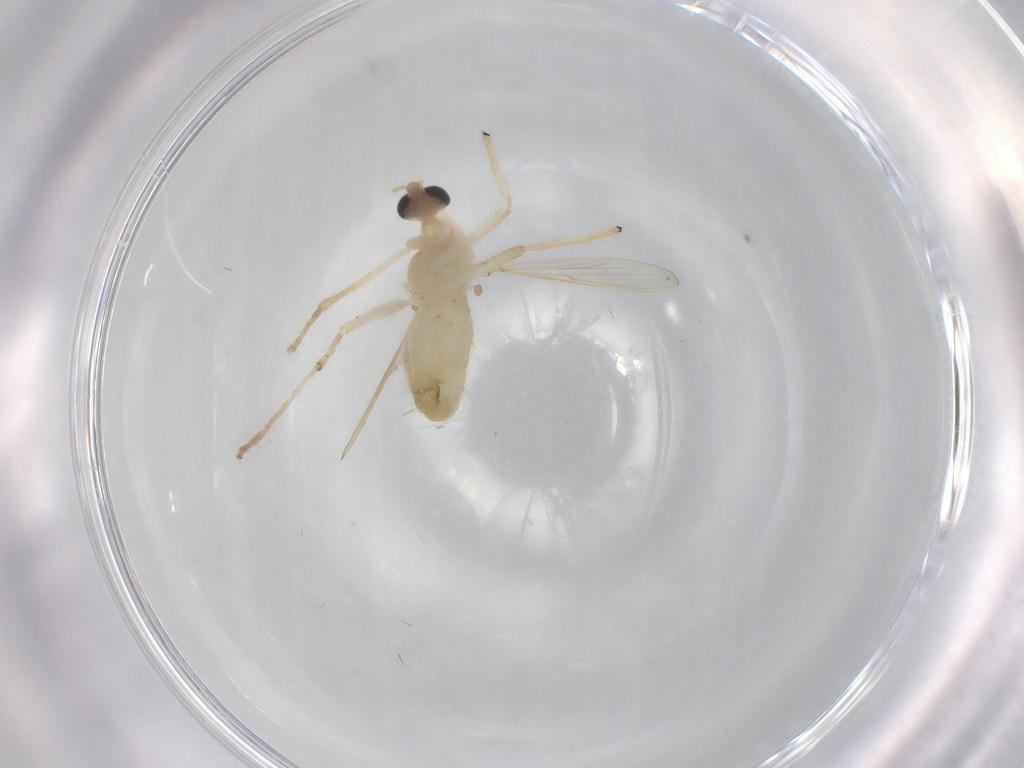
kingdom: Animalia
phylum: Arthropoda
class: Insecta
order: Diptera
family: Chironomidae
